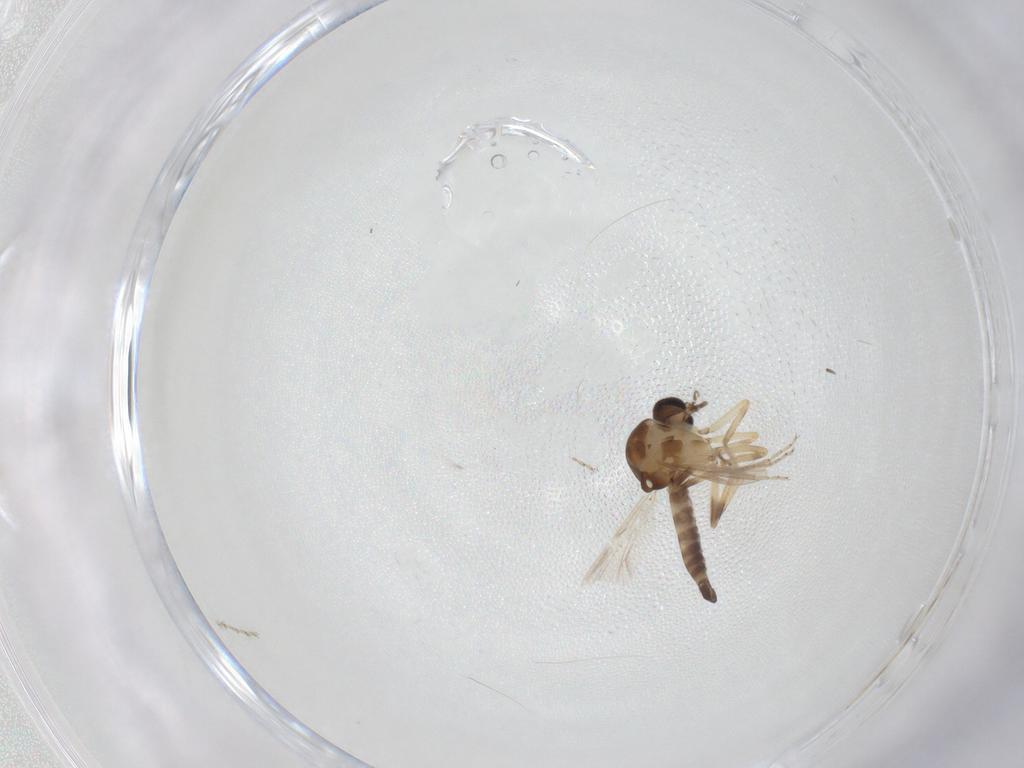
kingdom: Animalia
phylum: Arthropoda
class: Insecta
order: Diptera
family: Ceratopogonidae
